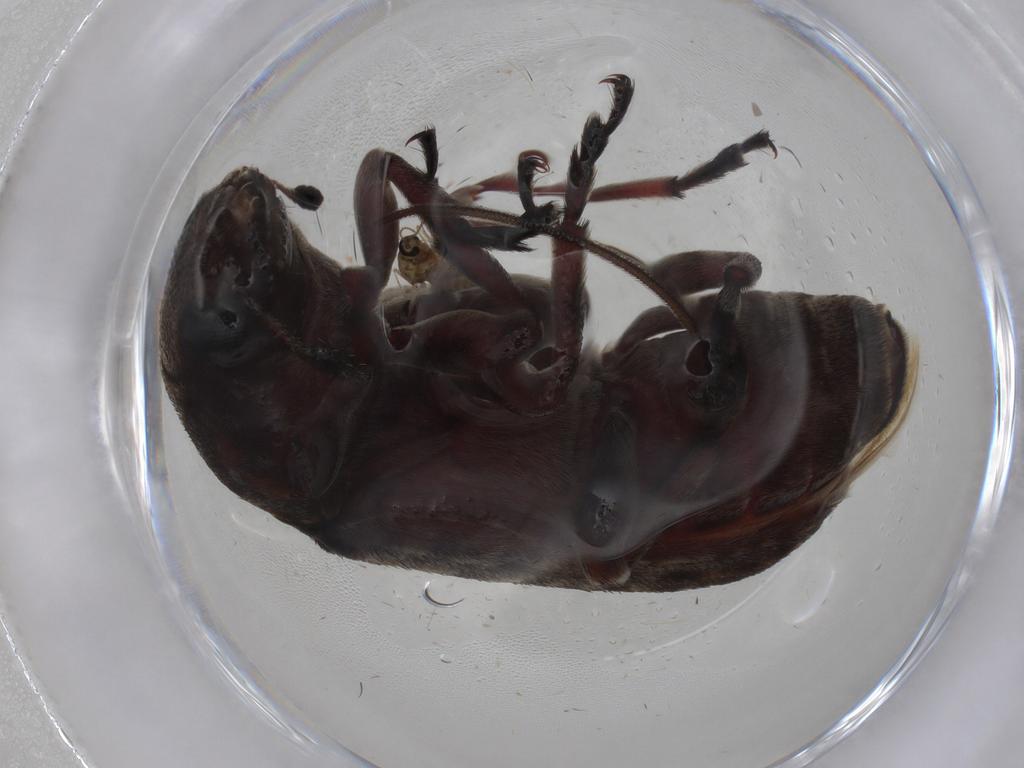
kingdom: Animalia
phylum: Arthropoda
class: Insecta
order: Coleoptera
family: Anthribidae
